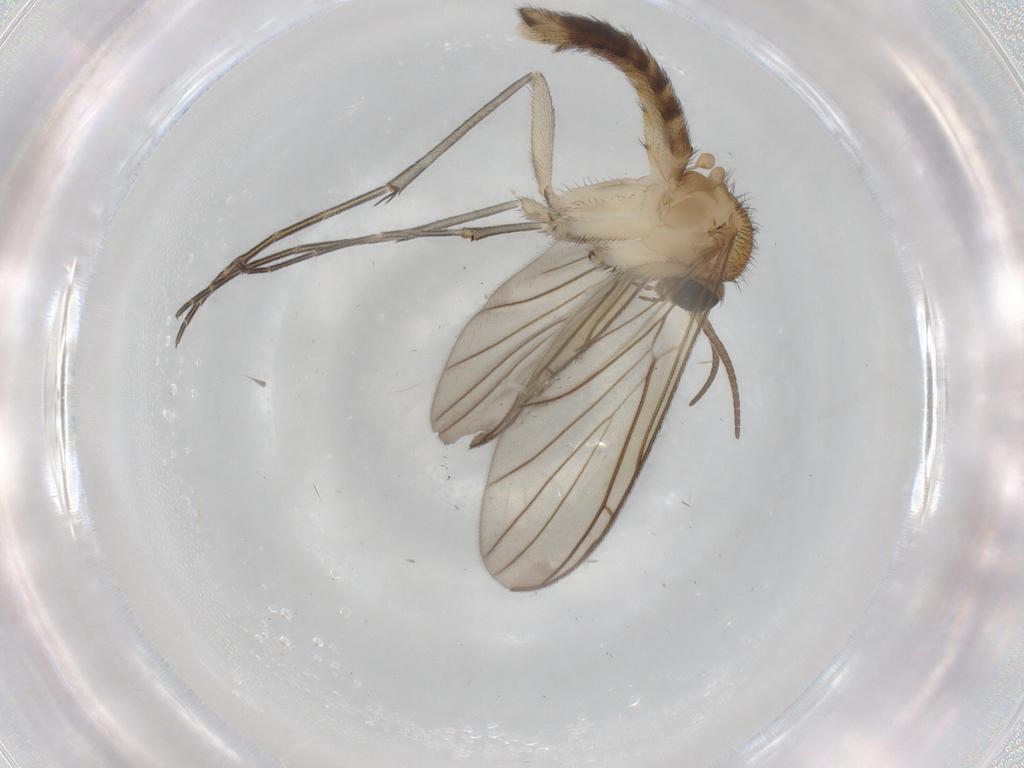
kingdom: Animalia
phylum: Arthropoda
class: Insecta
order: Diptera
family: Keroplatidae
